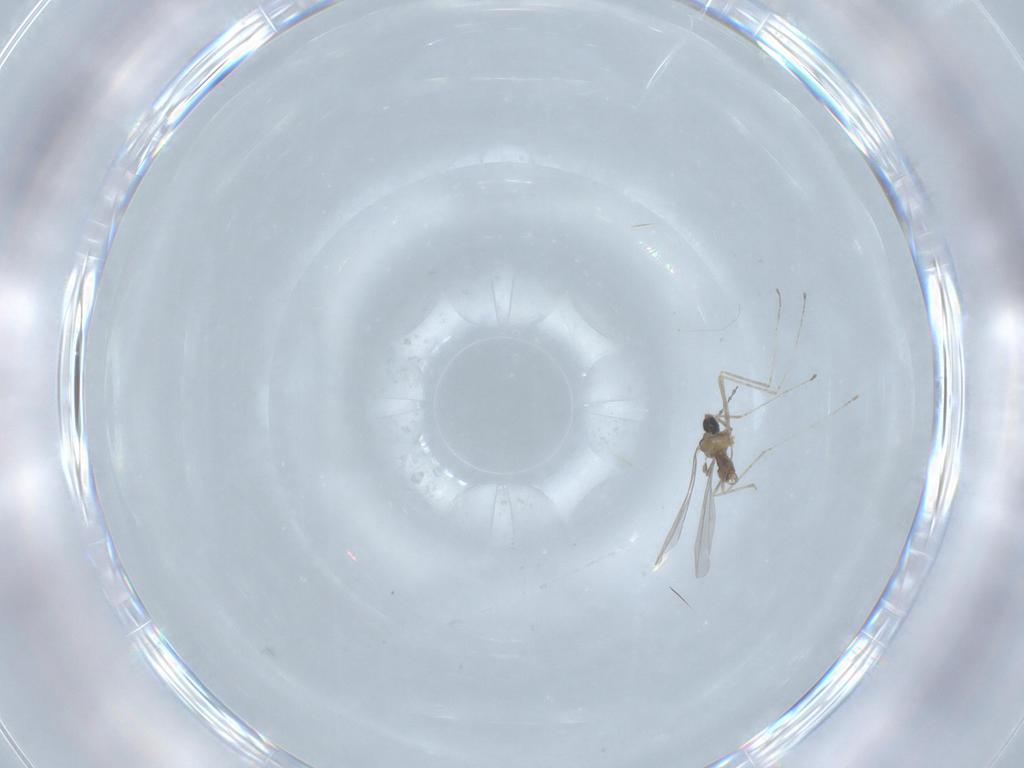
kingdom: Animalia
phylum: Arthropoda
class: Insecta
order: Diptera
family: Cecidomyiidae
